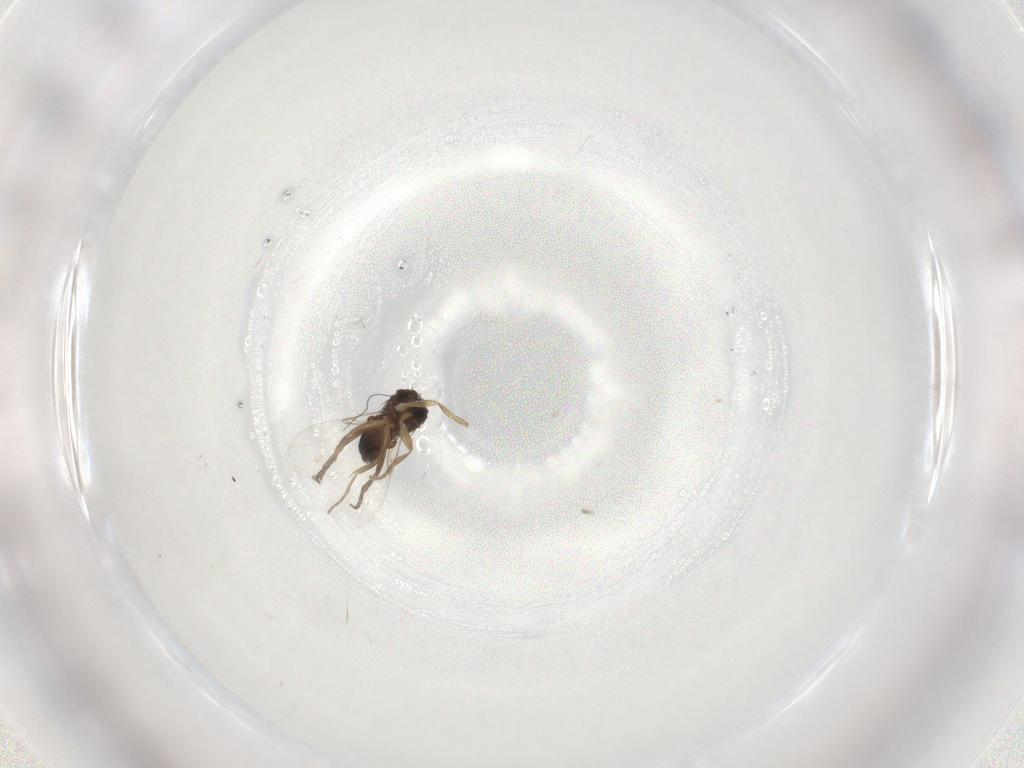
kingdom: Animalia
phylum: Arthropoda
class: Insecta
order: Diptera
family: Phoridae
